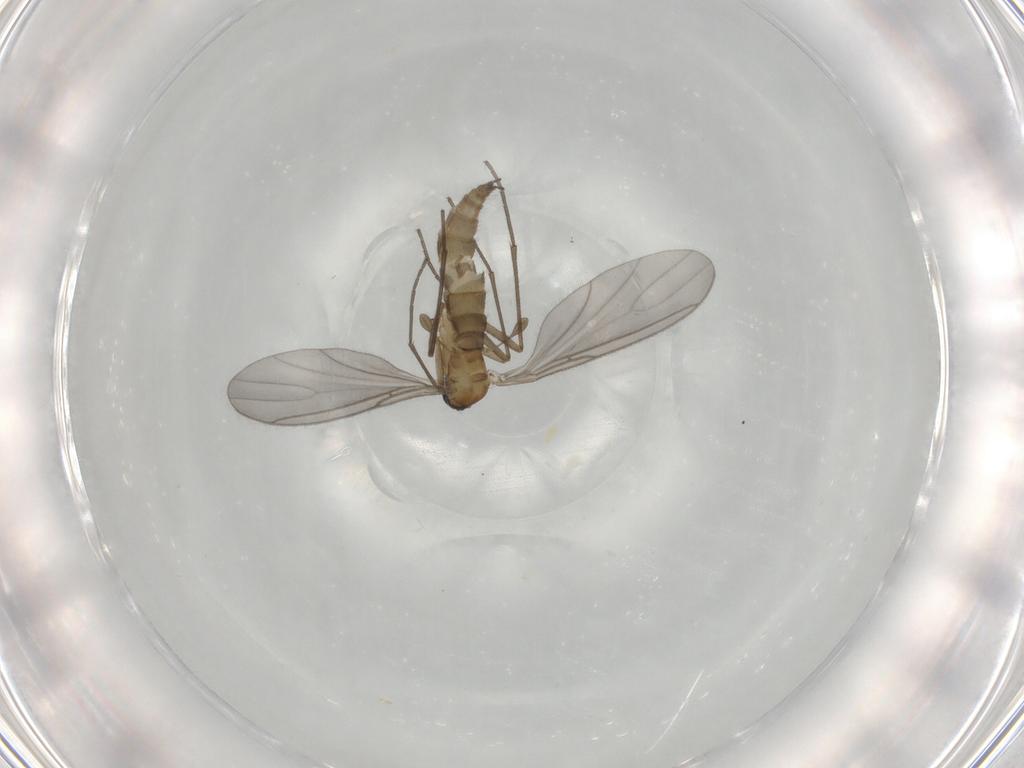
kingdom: Animalia
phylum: Arthropoda
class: Insecta
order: Diptera
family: Sciaridae
